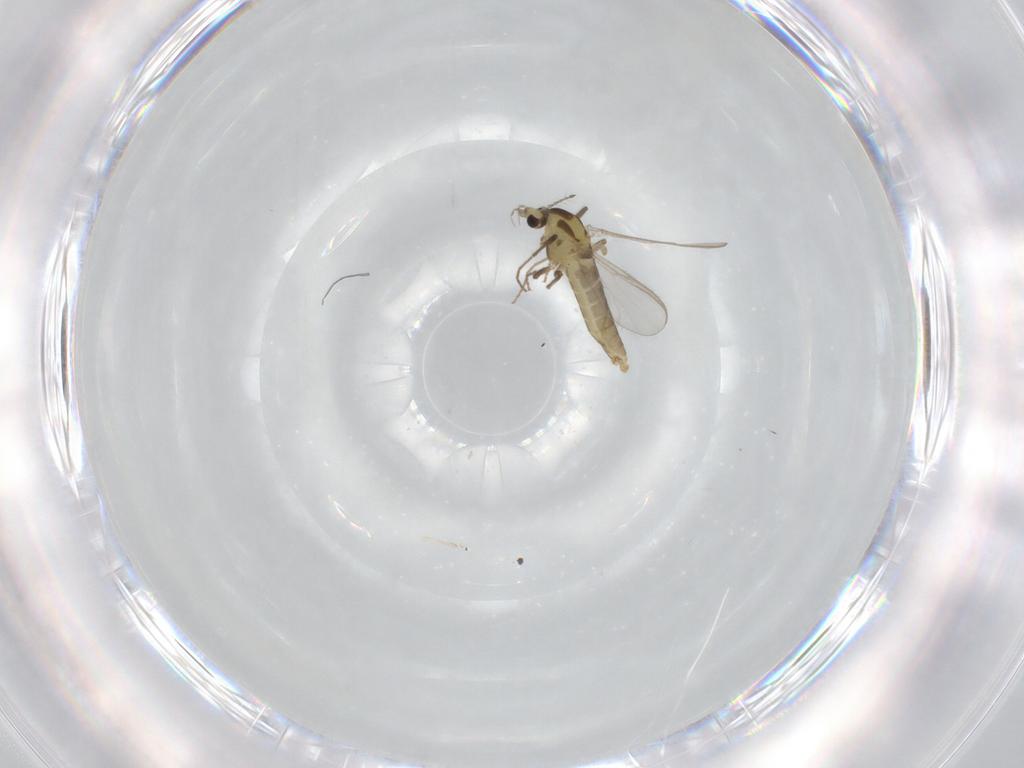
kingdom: Animalia
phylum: Arthropoda
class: Insecta
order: Diptera
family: Chironomidae
